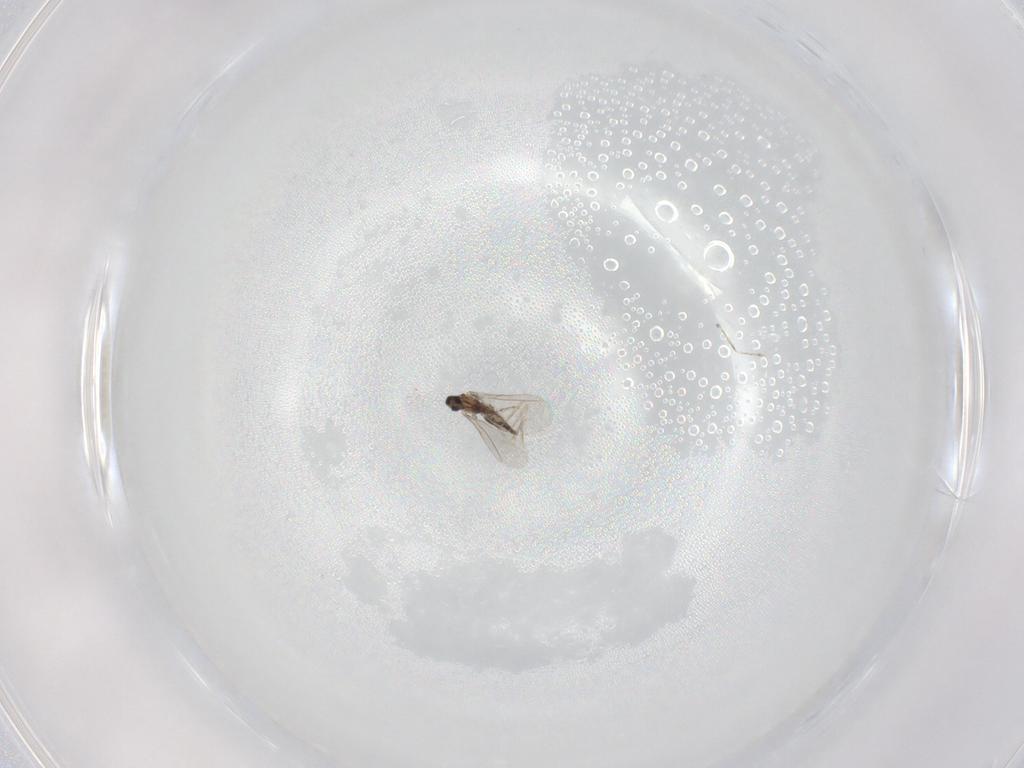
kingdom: Animalia
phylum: Arthropoda
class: Insecta
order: Diptera
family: Cecidomyiidae
